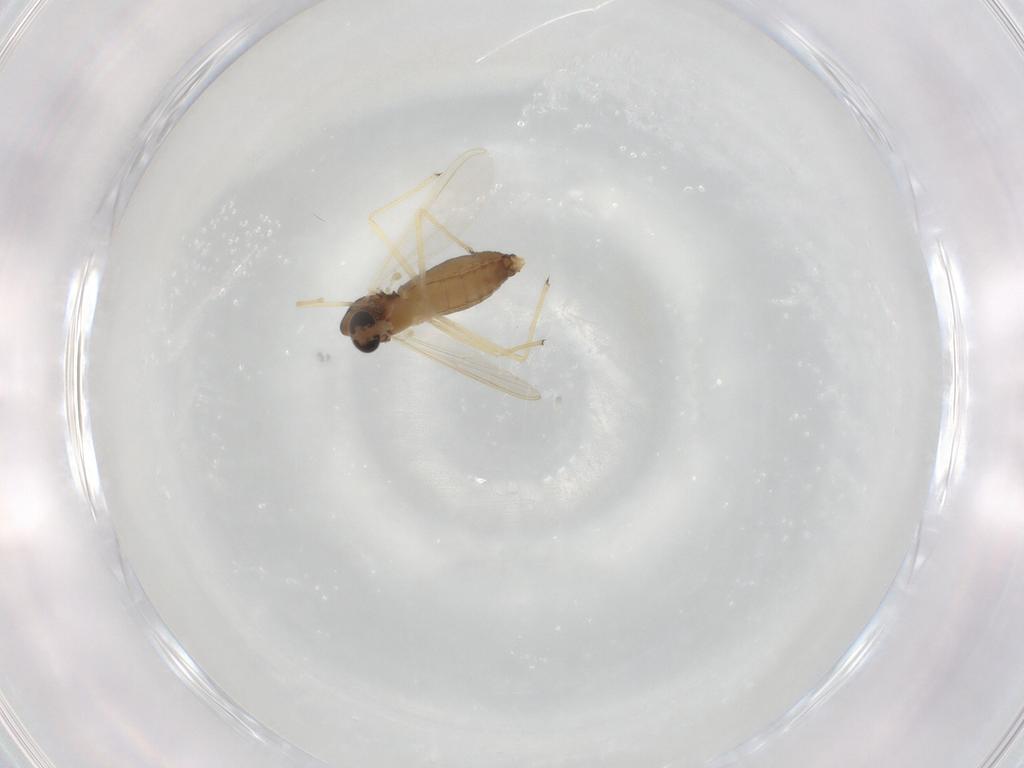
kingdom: Animalia
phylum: Arthropoda
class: Insecta
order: Diptera
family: Chironomidae
